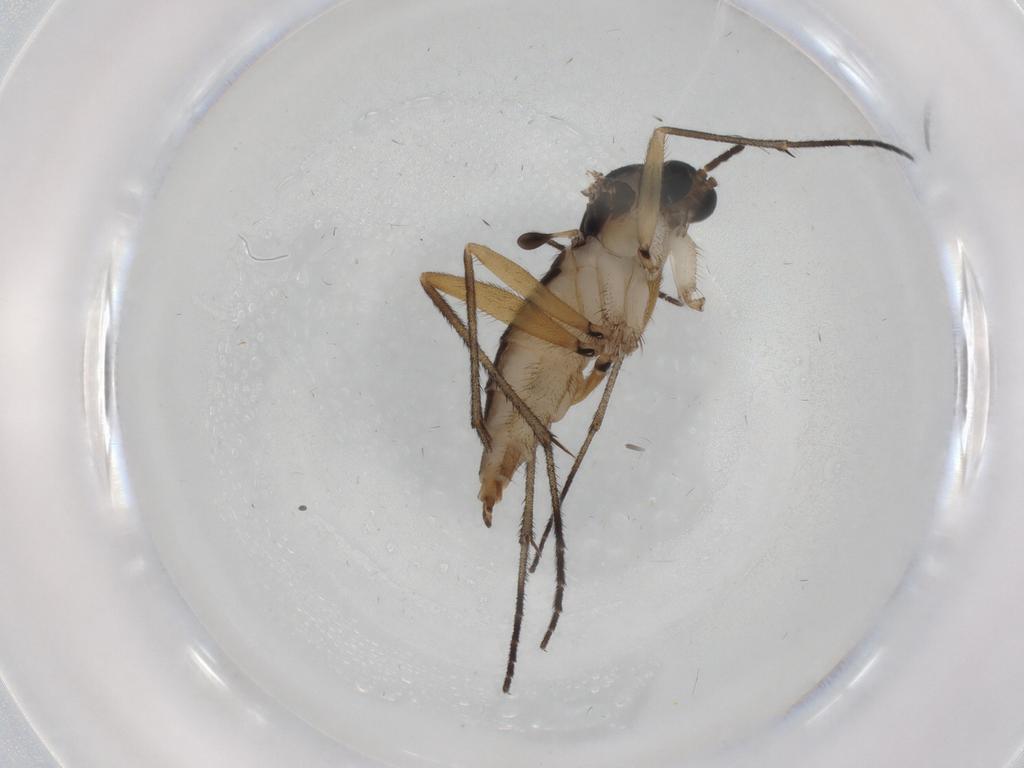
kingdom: Animalia
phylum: Arthropoda
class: Insecta
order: Diptera
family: Sciaridae
